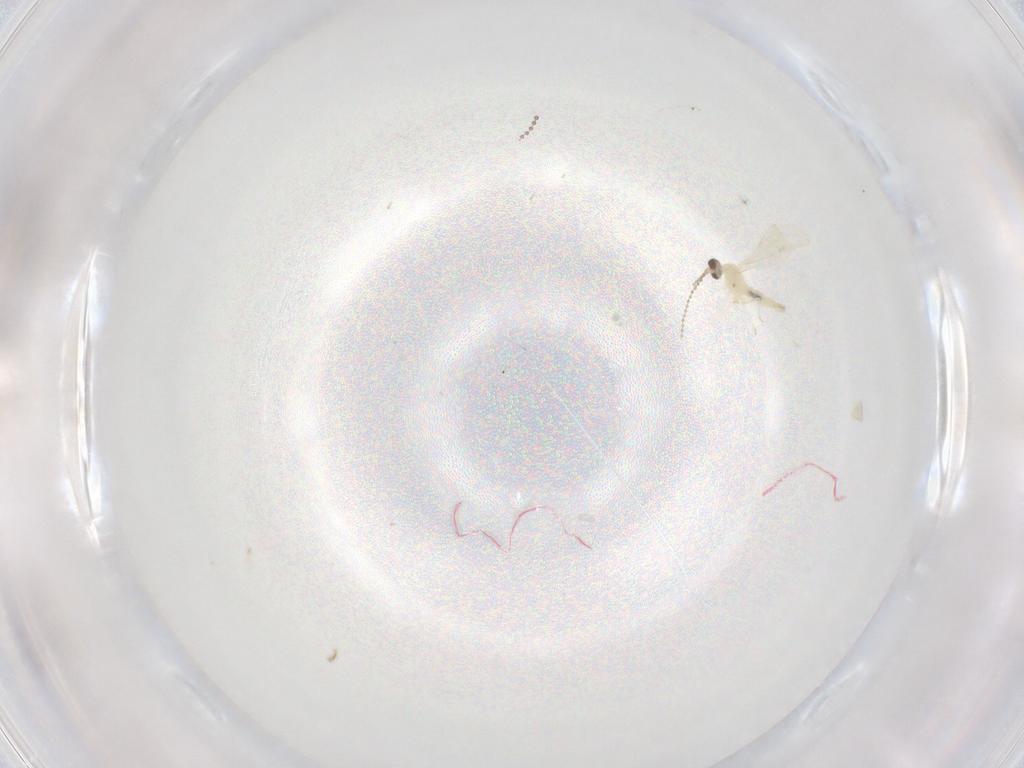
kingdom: Animalia
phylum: Arthropoda
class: Insecta
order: Diptera
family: Cecidomyiidae
